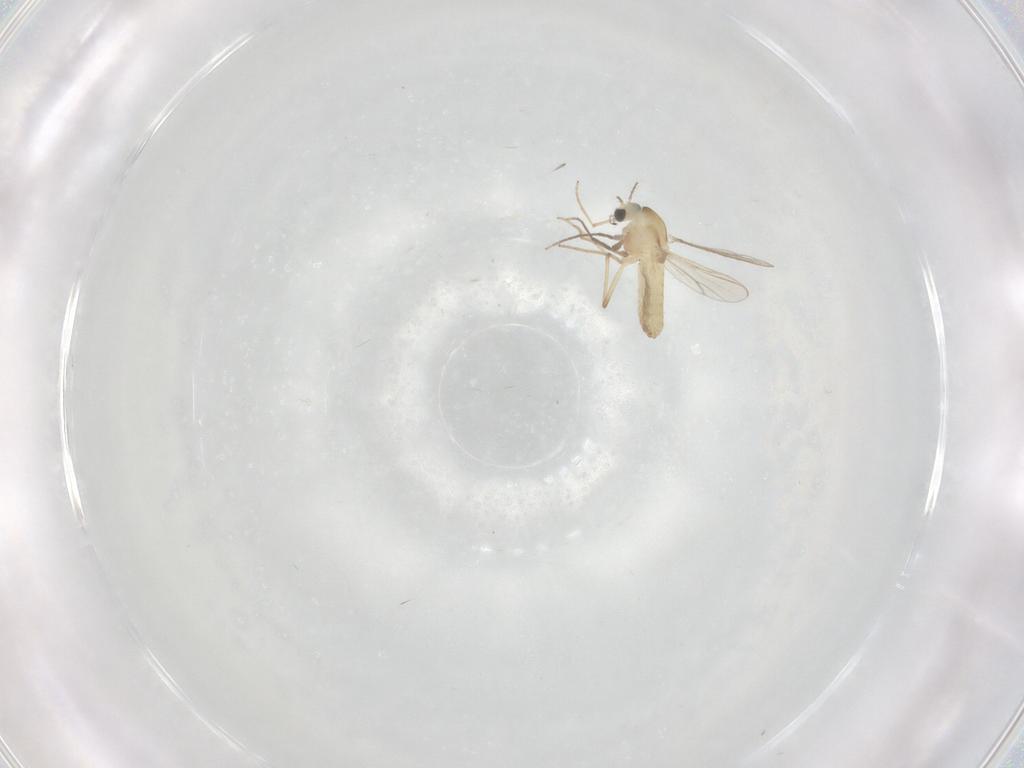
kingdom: Animalia
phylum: Arthropoda
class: Insecta
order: Diptera
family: Chironomidae
